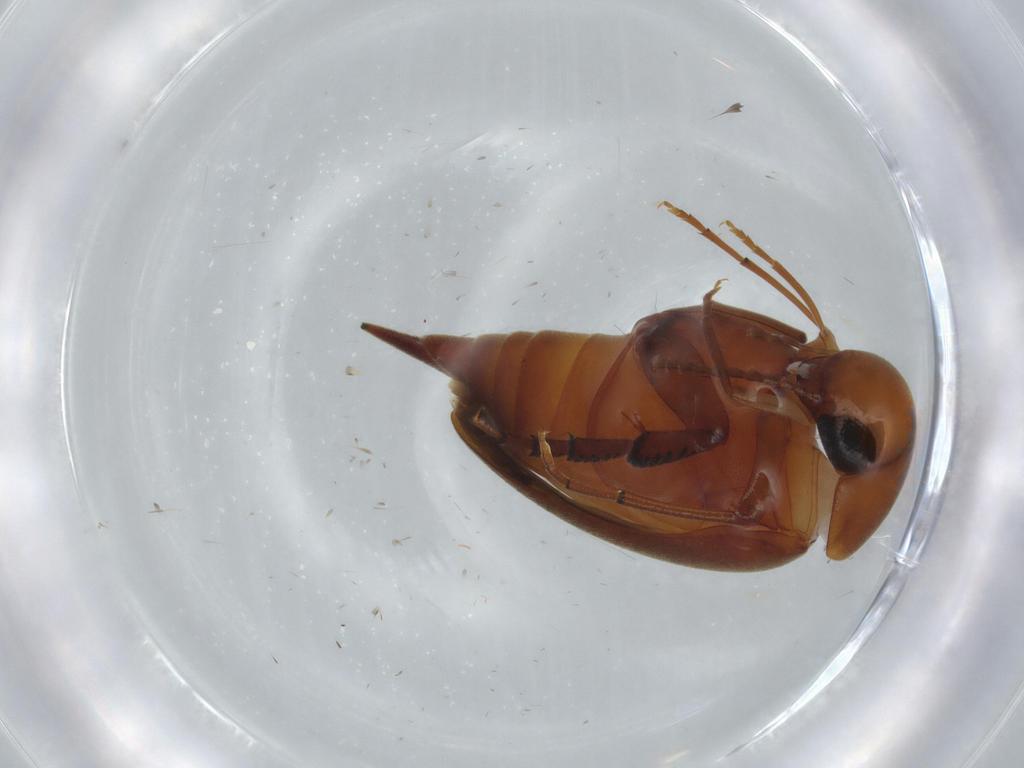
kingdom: Animalia
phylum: Arthropoda
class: Insecta
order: Coleoptera
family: Mordellidae
